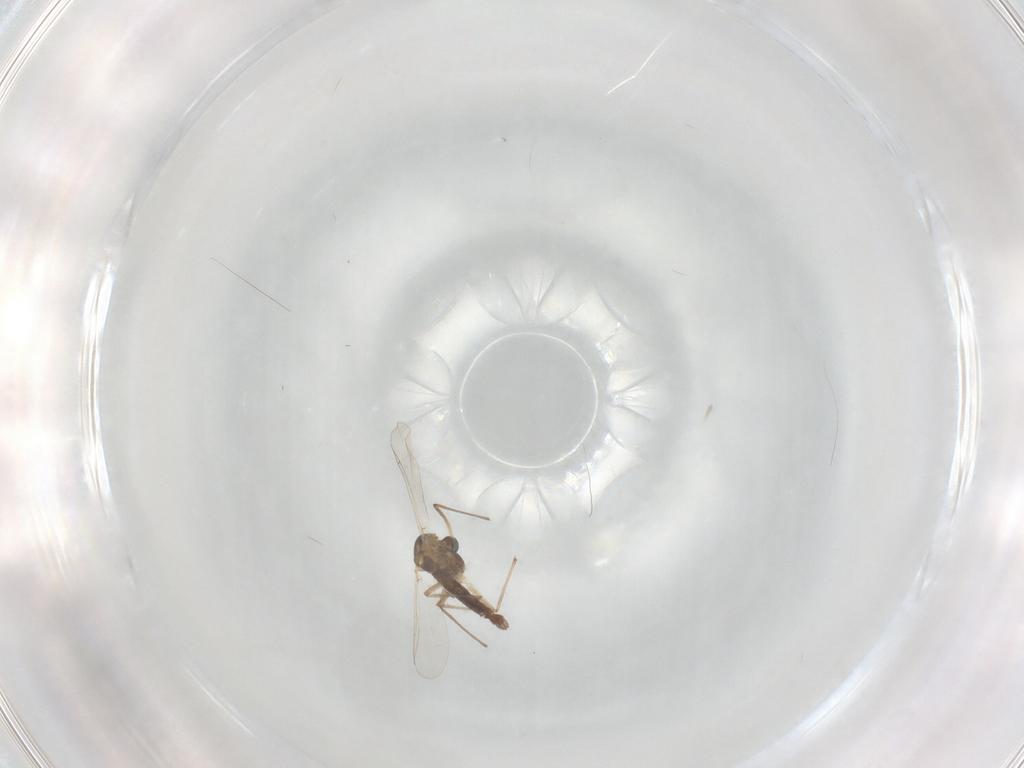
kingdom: Animalia
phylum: Arthropoda
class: Insecta
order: Diptera
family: Chironomidae
